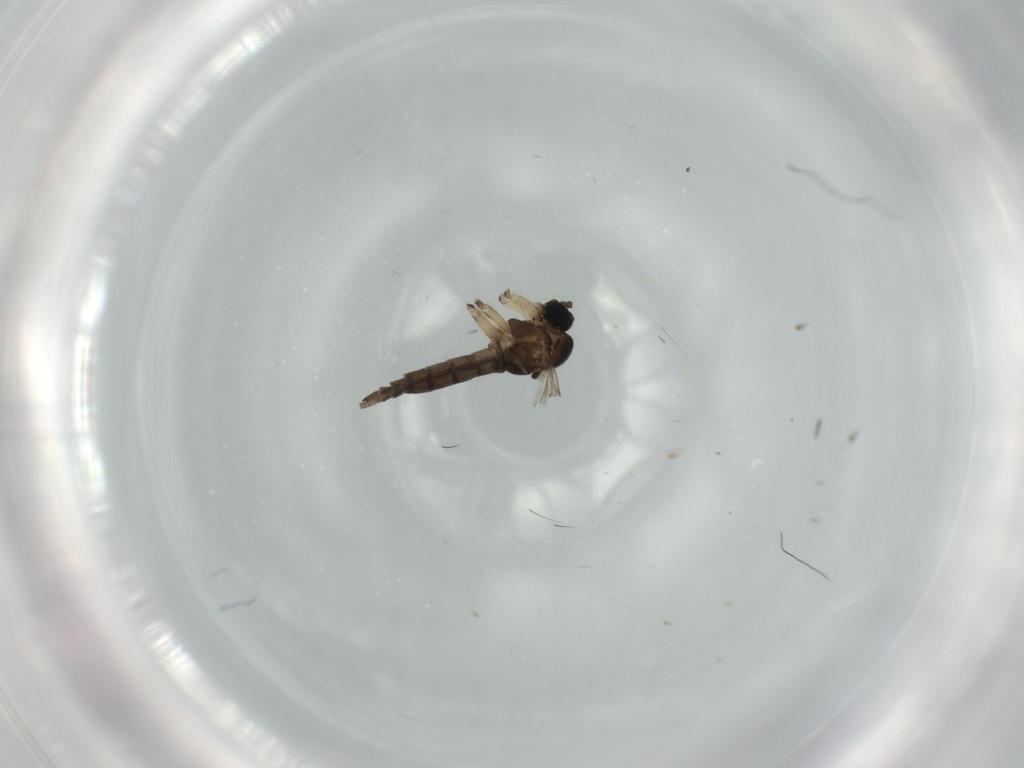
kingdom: Animalia
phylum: Arthropoda
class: Insecta
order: Diptera
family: Sciaridae
